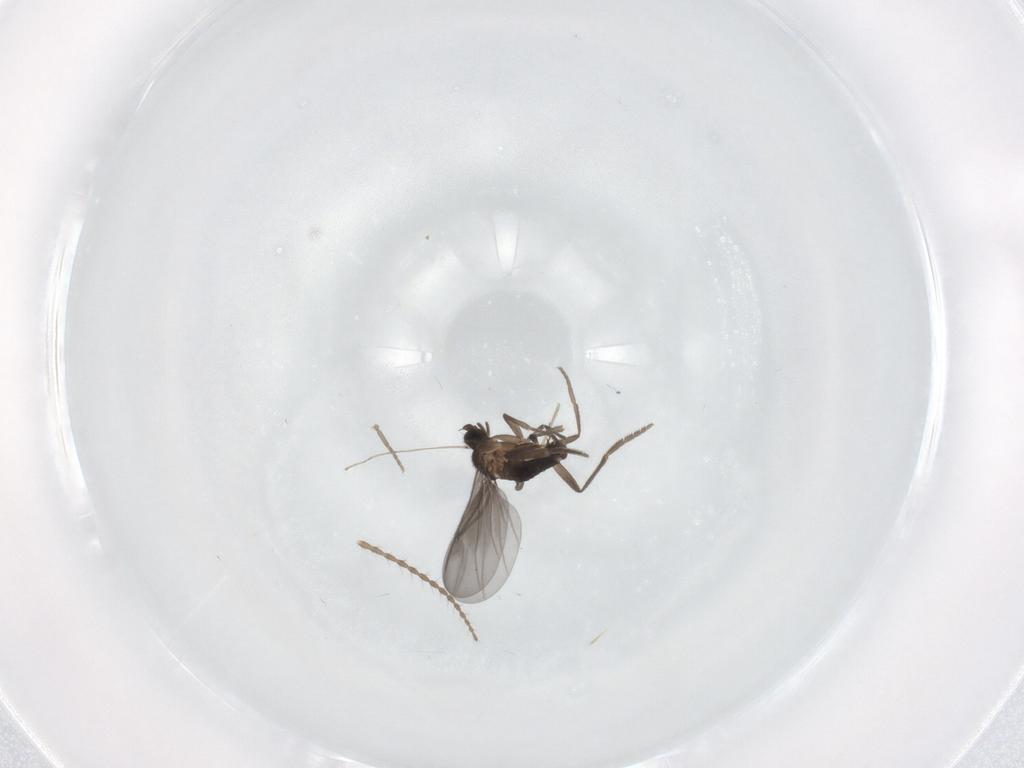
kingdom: Animalia
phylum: Arthropoda
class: Insecta
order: Diptera
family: Phoridae
